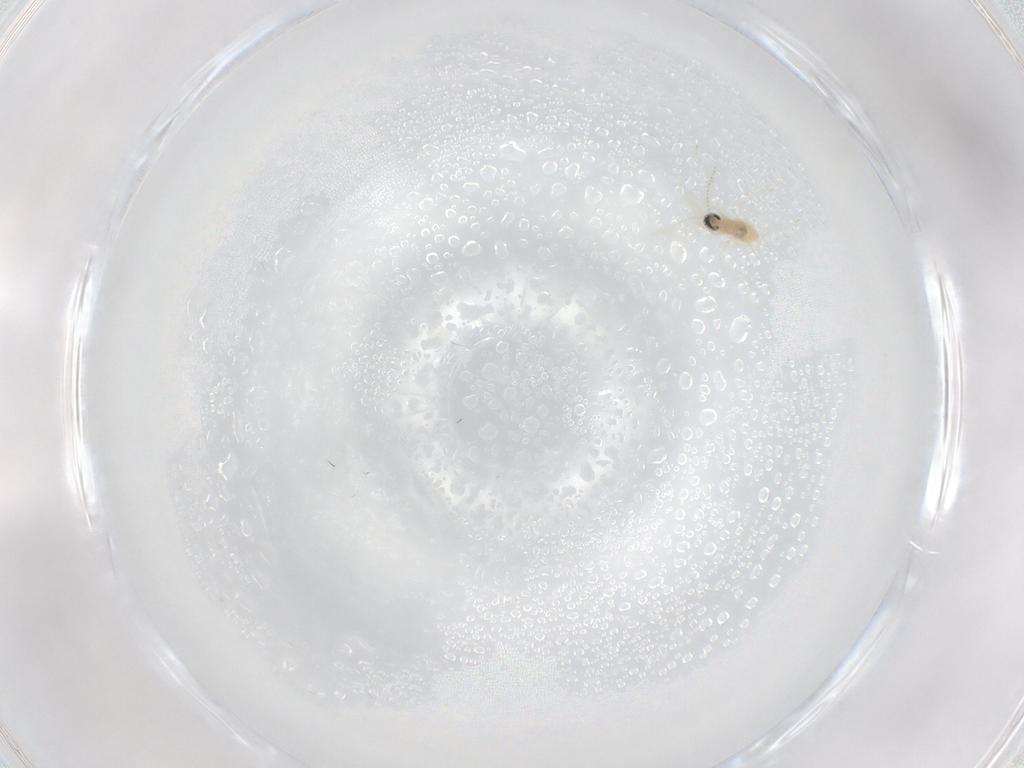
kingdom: Animalia
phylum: Arthropoda
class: Insecta
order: Diptera
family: Cecidomyiidae
